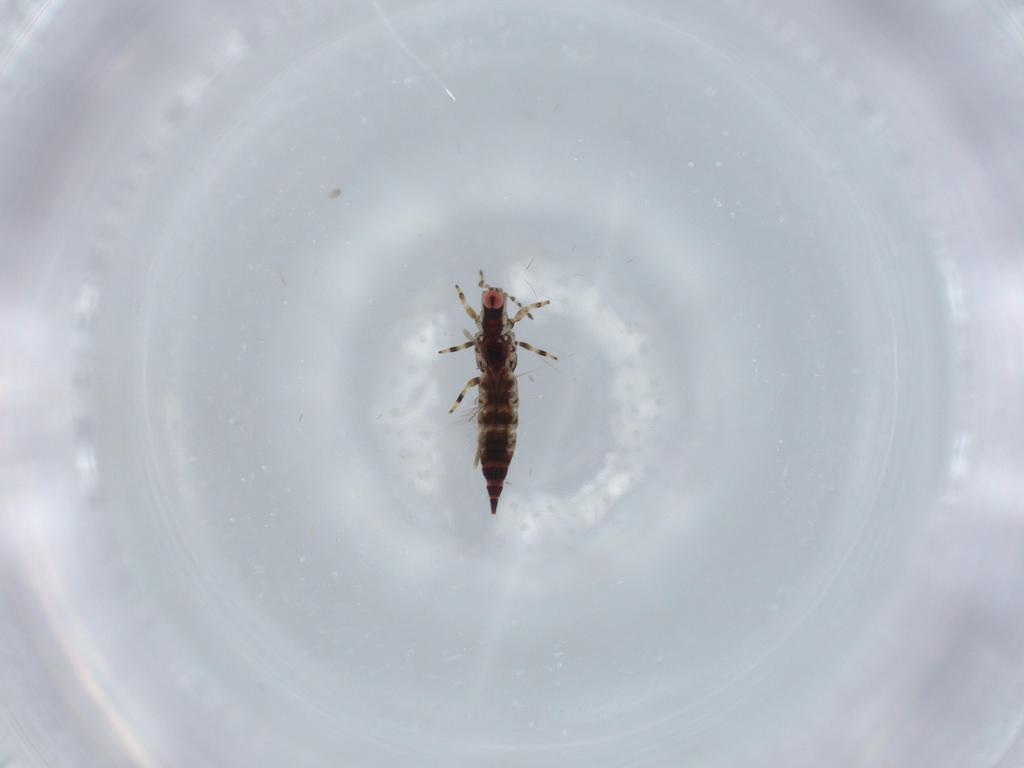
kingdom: Animalia
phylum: Arthropoda
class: Insecta
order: Thysanoptera
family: Phlaeothripidae
